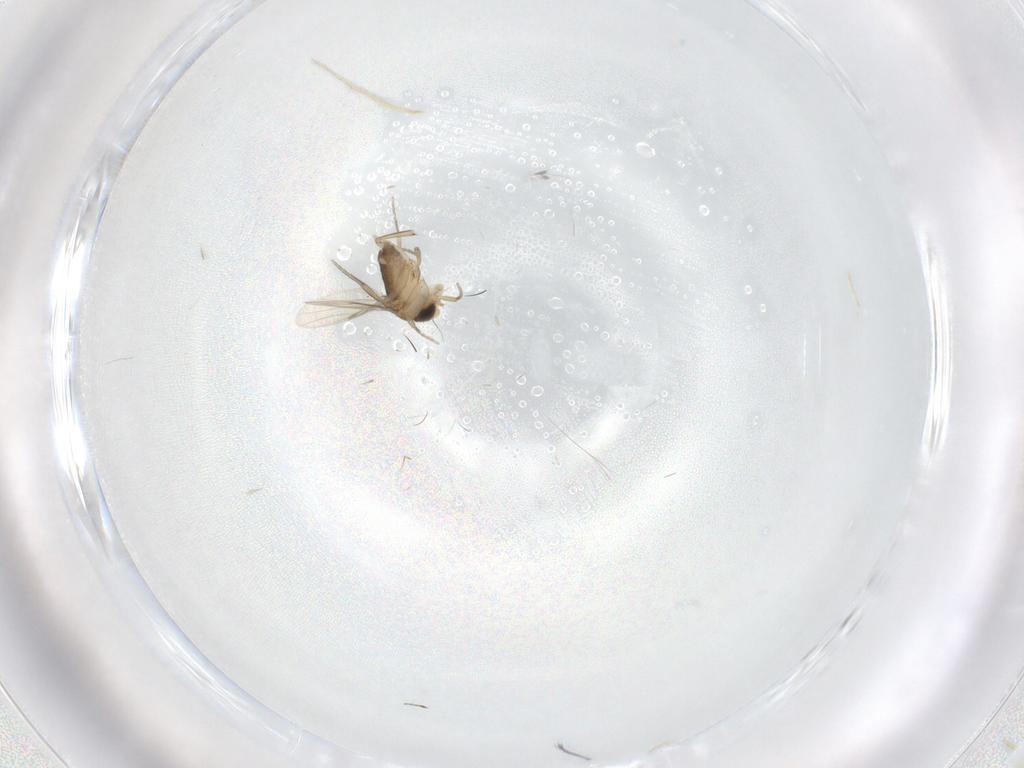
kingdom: Animalia
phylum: Arthropoda
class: Insecta
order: Diptera
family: Phoridae
